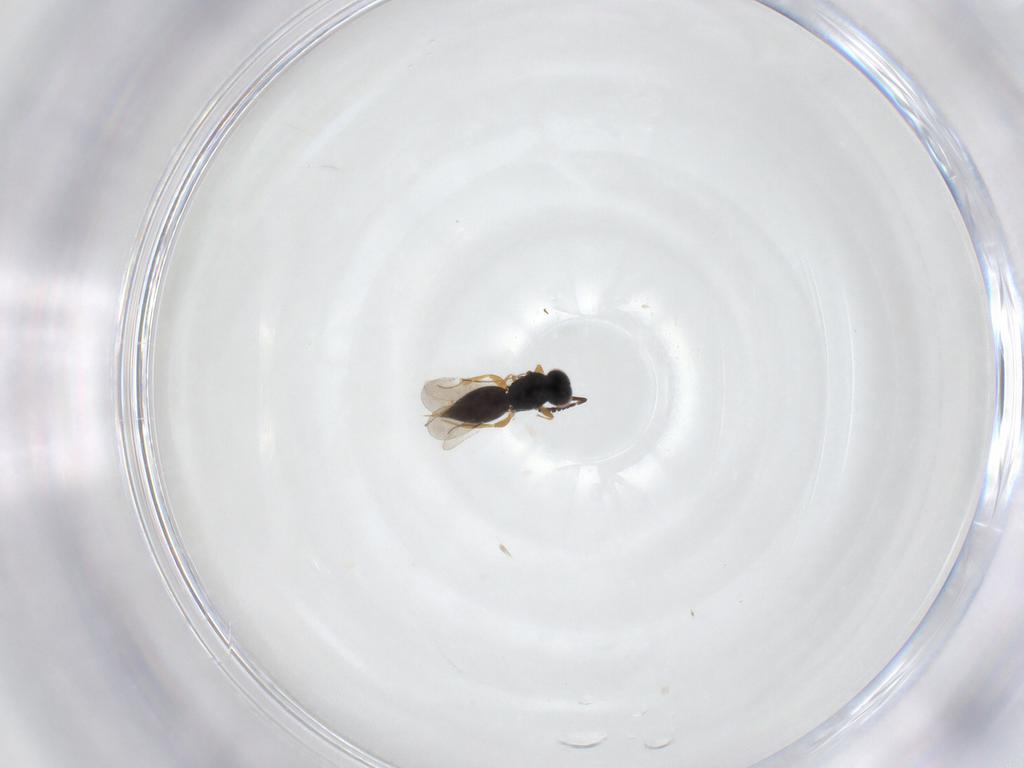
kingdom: Animalia
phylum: Arthropoda
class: Insecta
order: Hymenoptera
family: Ceraphronidae
